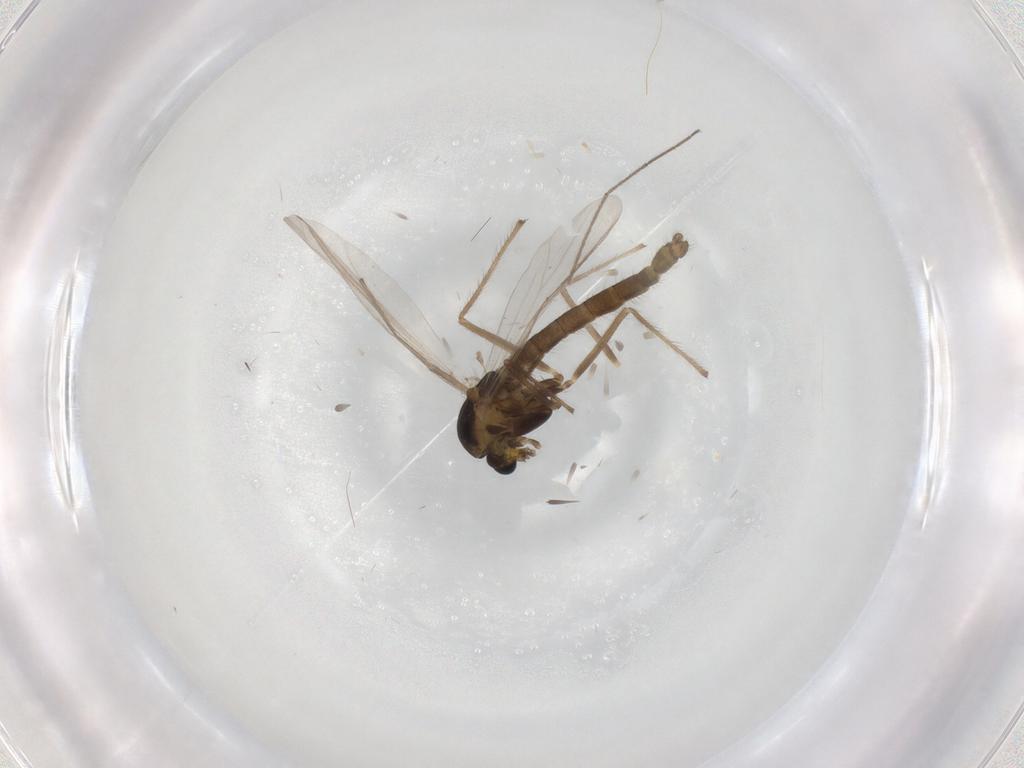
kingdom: Animalia
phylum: Arthropoda
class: Insecta
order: Diptera
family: Chironomidae
